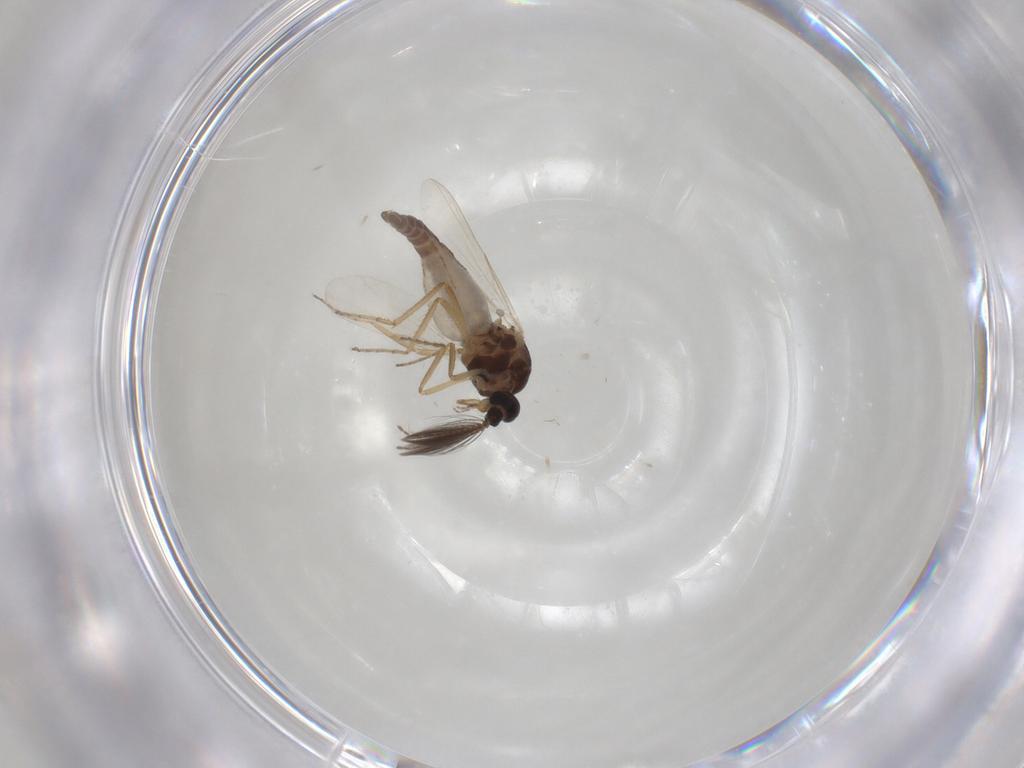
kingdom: Animalia
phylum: Arthropoda
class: Insecta
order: Diptera
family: Ceratopogonidae
